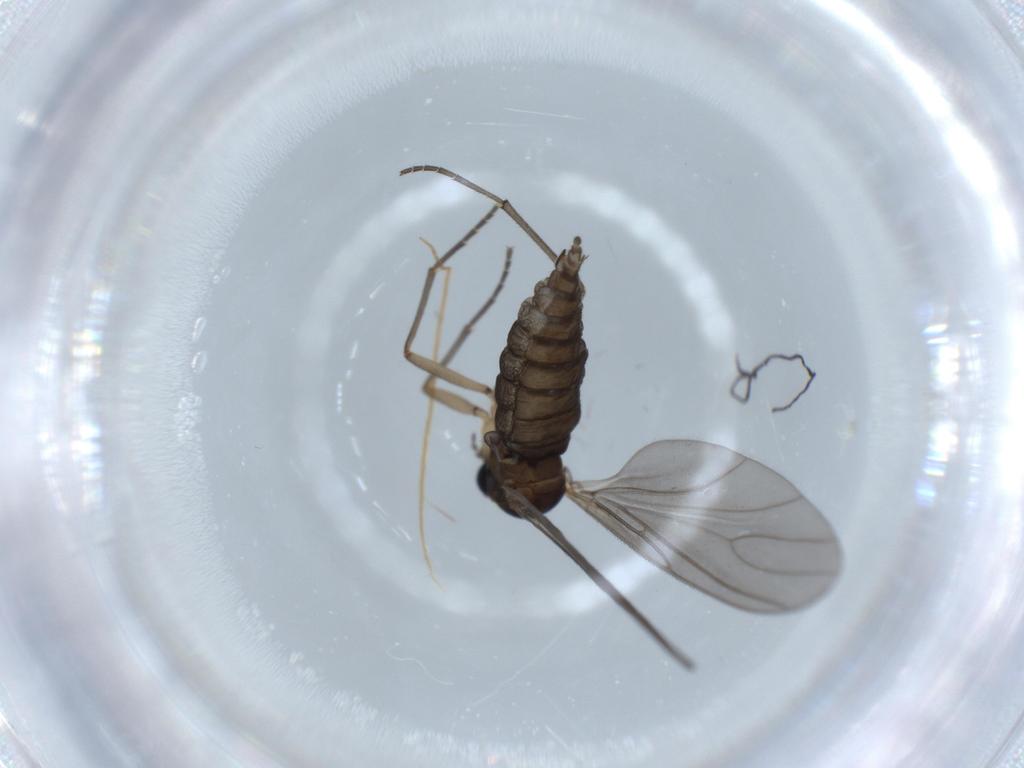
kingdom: Animalia
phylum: Arthropoda
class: Insecta
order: Diptera
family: Sciaridae
